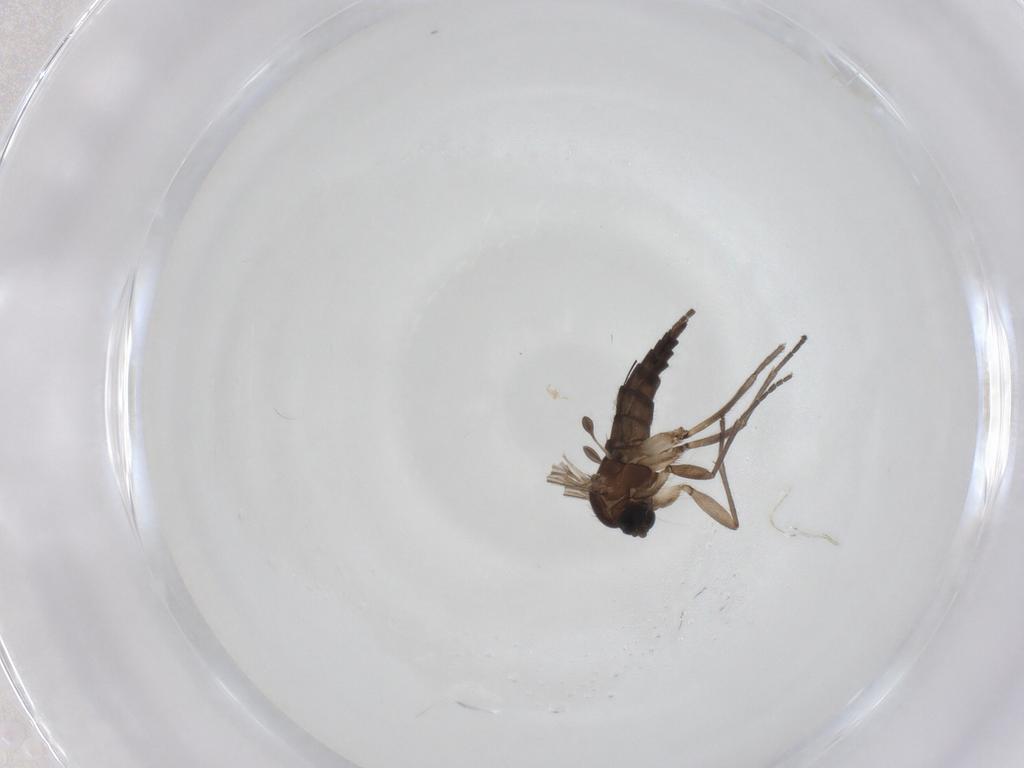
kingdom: Animalia
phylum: Arthropoda
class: Insecta
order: Diptera
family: Sciaridae
